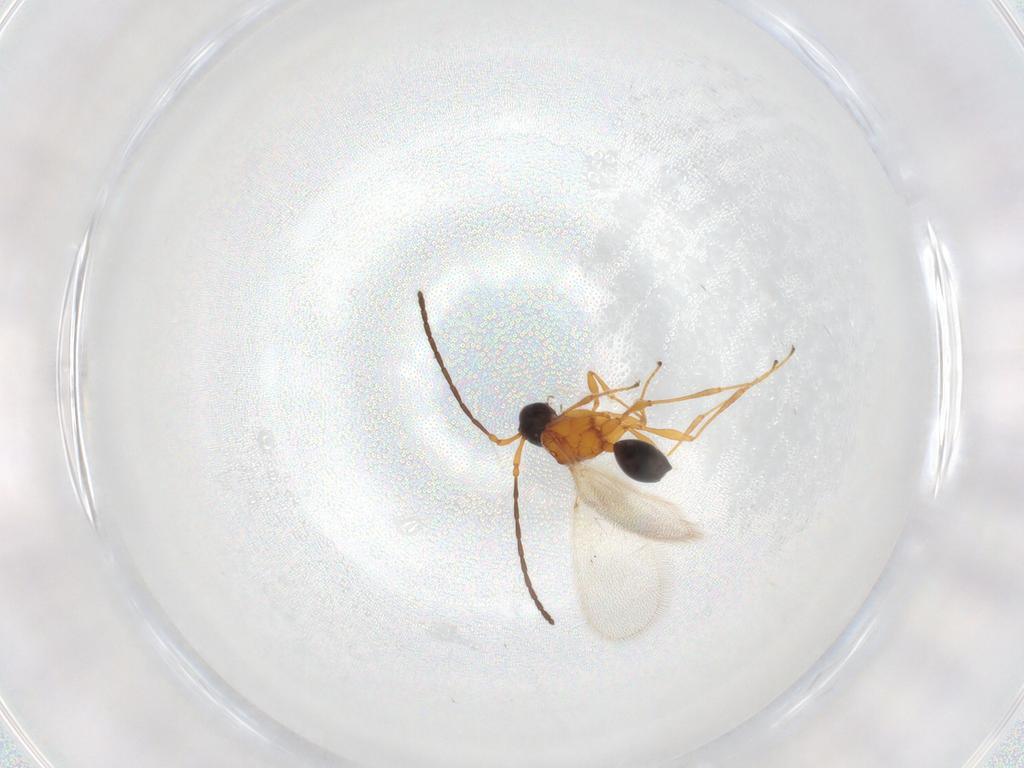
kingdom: Animalia
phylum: Arthropoda
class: Insecta
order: Hymenoptera
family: Diapriidae
